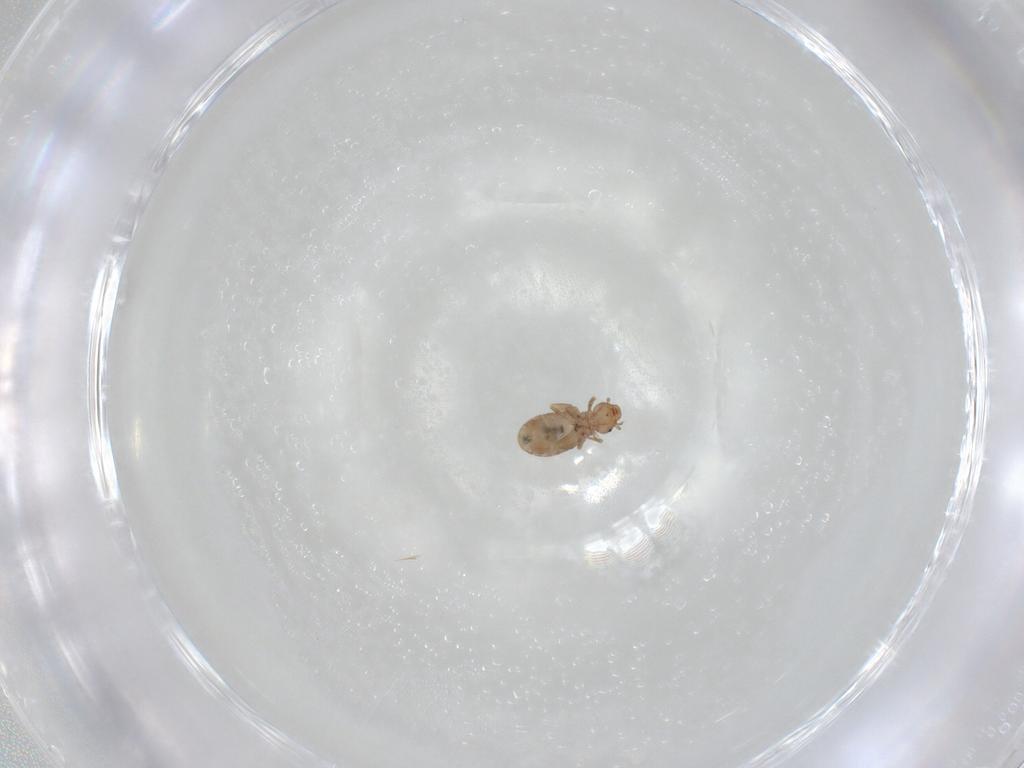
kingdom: Animalia
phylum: Arthropoda
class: Insecta
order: Psocodea
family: Liposcelididae
